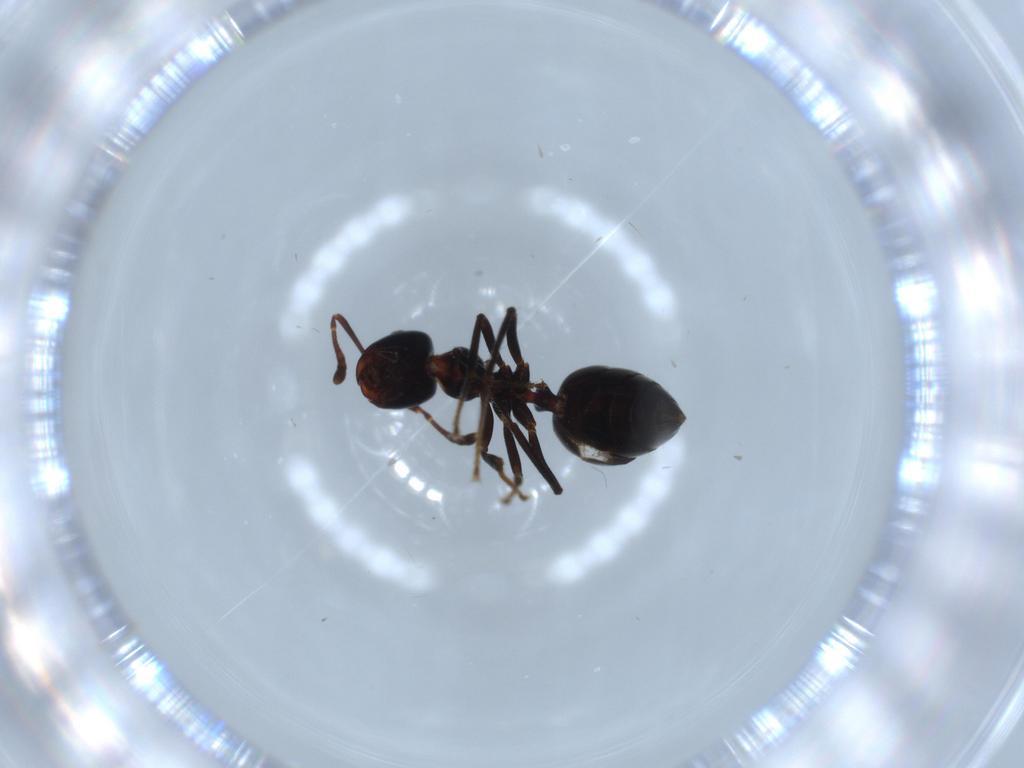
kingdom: Animalia
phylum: Arthropoda
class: Insecta
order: Hymenoptera
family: Formicidae
